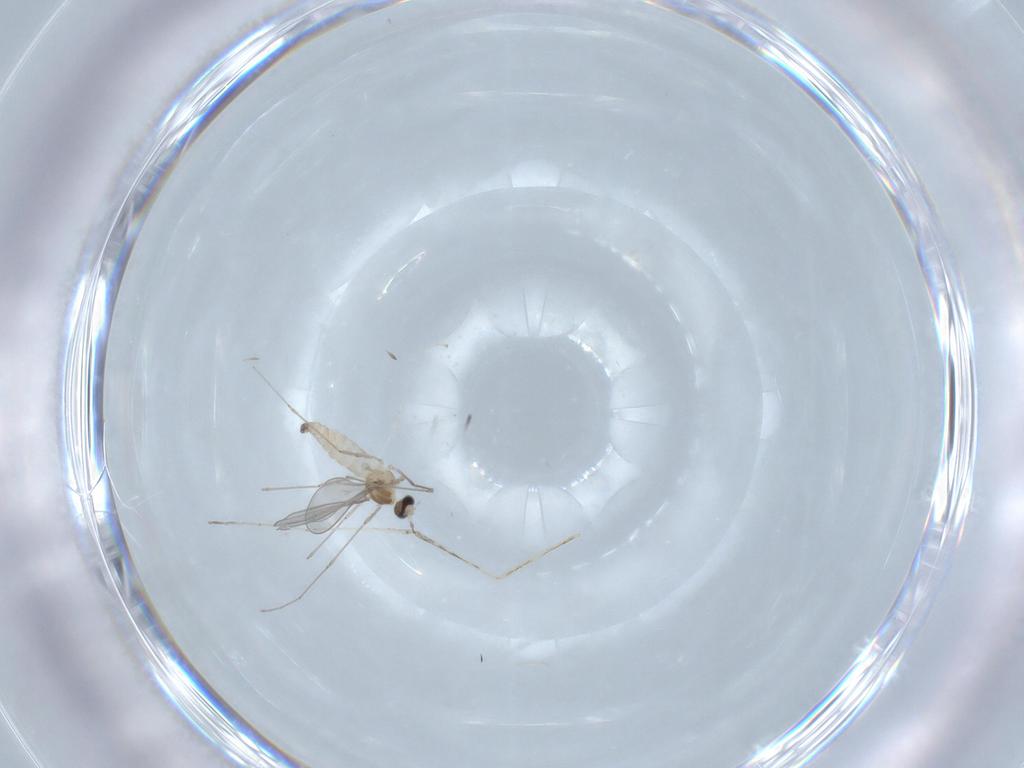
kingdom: Animalia
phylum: Arthropoda
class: Insecta
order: Diptera
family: Cecidomyiidae
